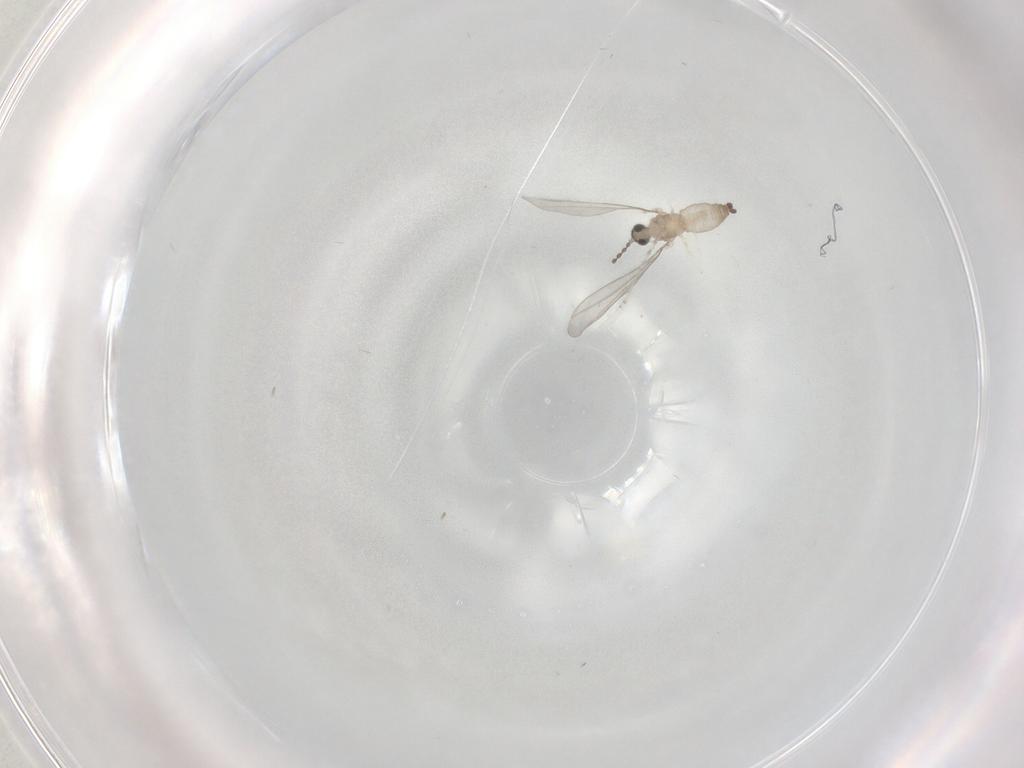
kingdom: Animalia
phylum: Arthropoda
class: Insecta
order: Diptera
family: Cecidomyiidae
